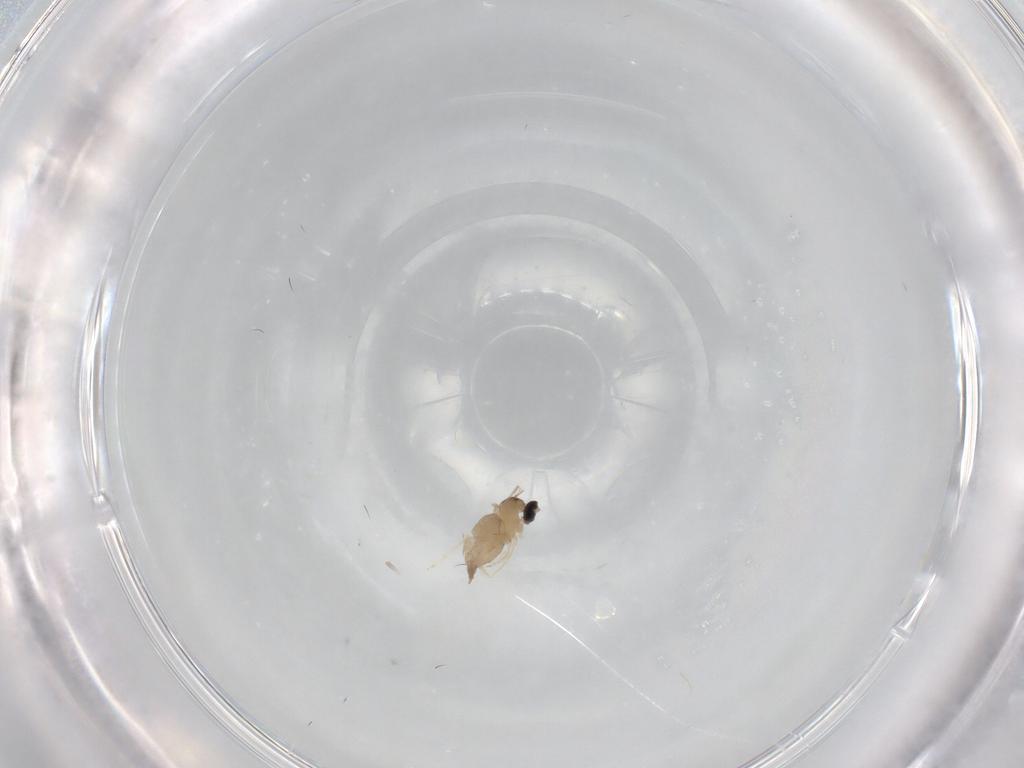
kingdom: Animalia
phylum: Arthropoda
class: Insecta
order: Diptera
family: Cecidomyiidae
